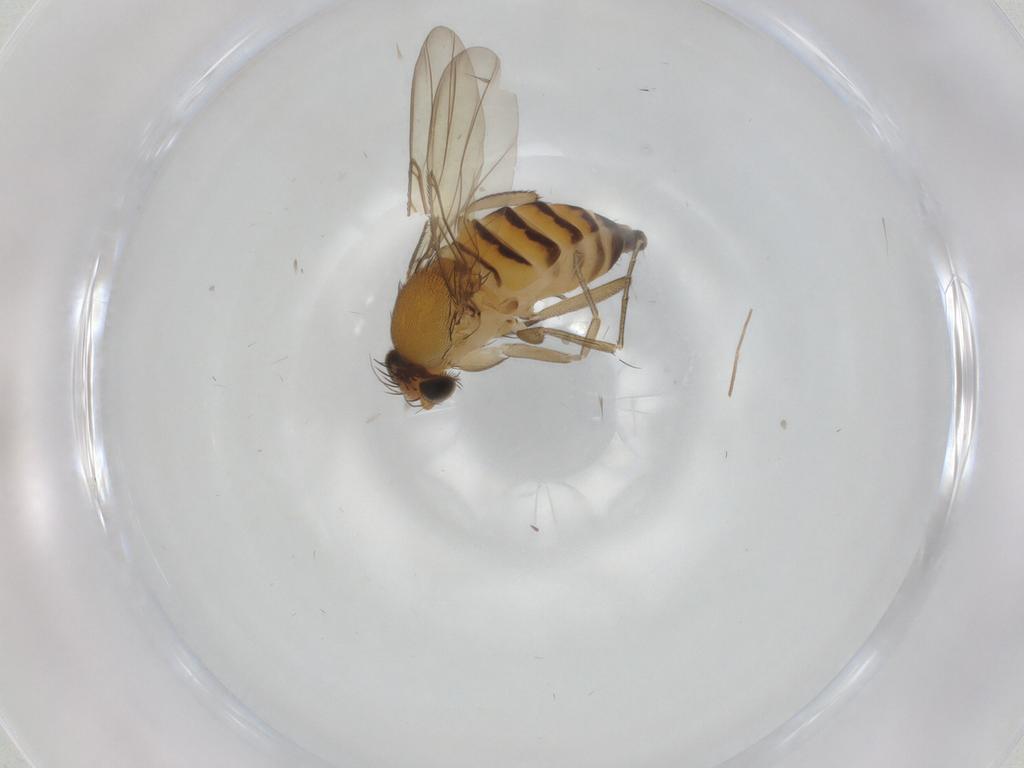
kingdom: Animalia
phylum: Arthropoda
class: Insecta
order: Diptera
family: Phoridae
